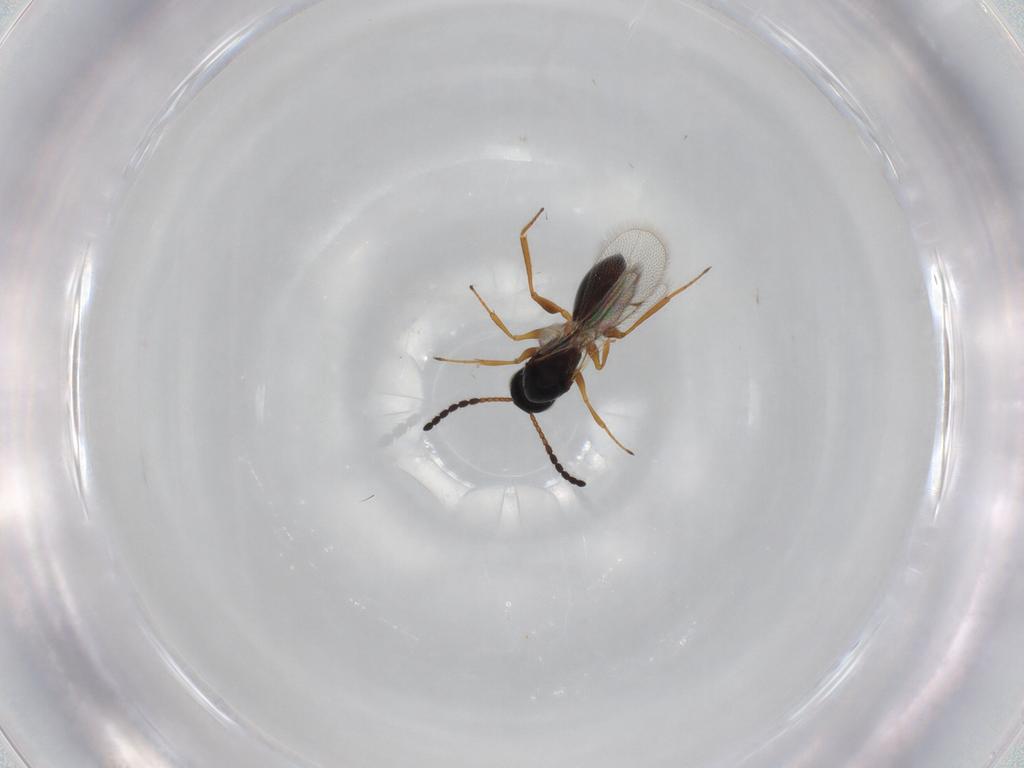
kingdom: Animalia
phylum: Arthropoda
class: Insecta
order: Hymenoptera
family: Figitidae
